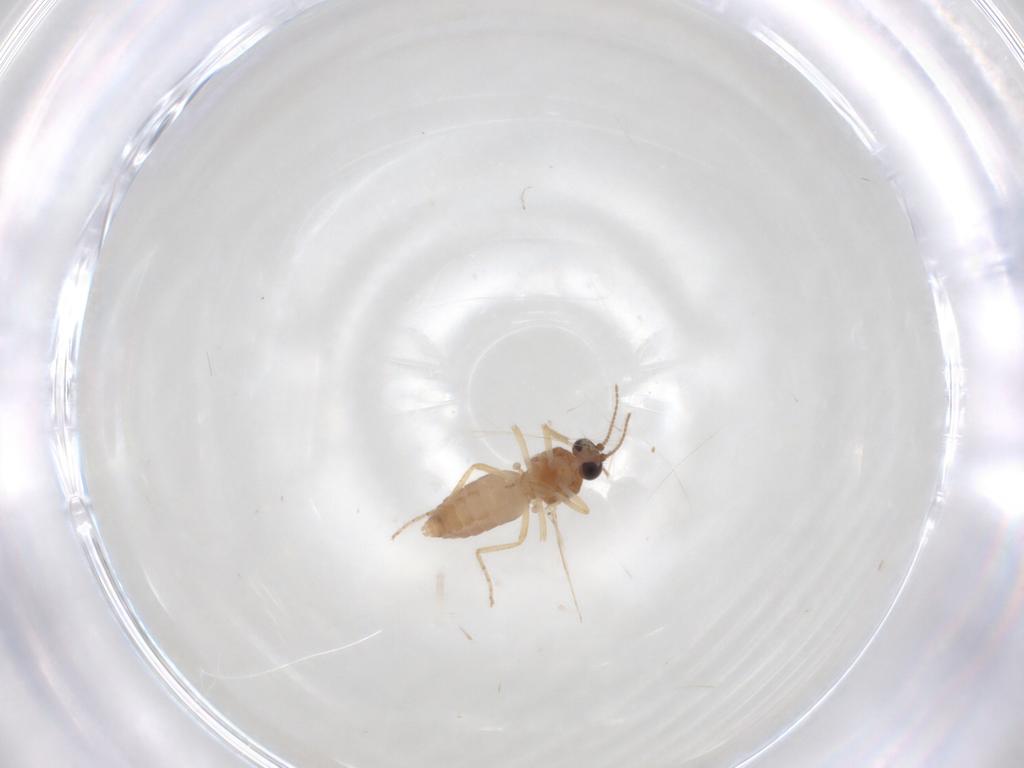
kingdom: Animalia
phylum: Arthropoda
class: Insecta
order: Diptera
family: Ceratopogonidae
